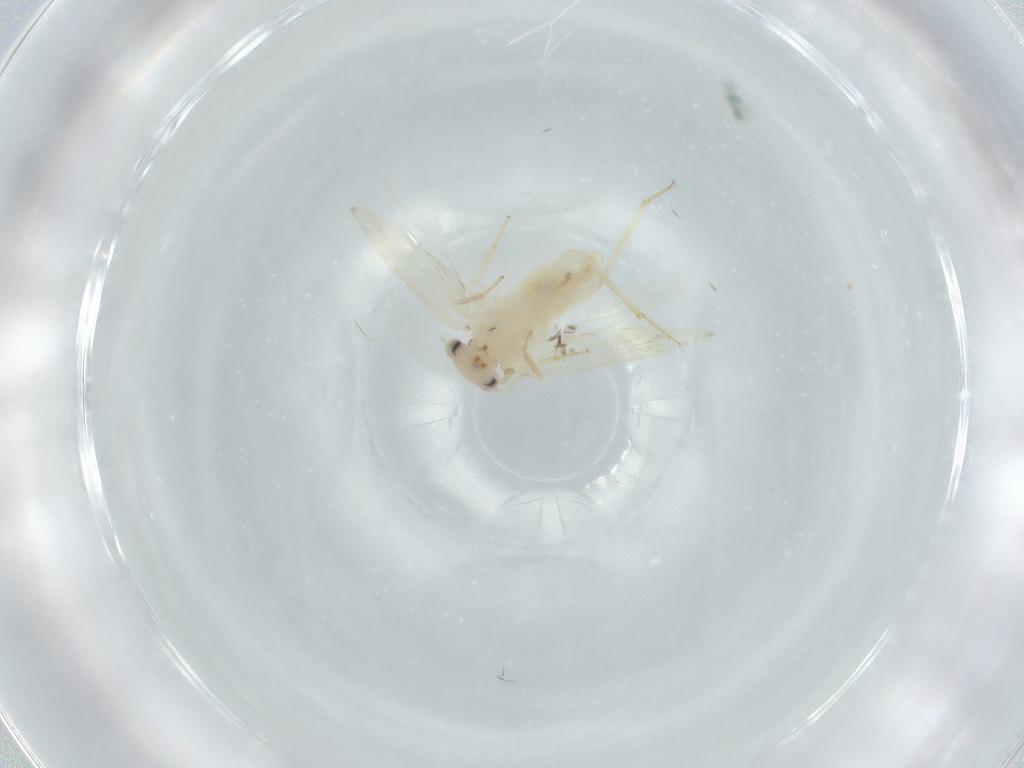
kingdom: Animalia
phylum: Arthropoda
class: Insecta
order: Psocodea
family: Lepidopsocidae
